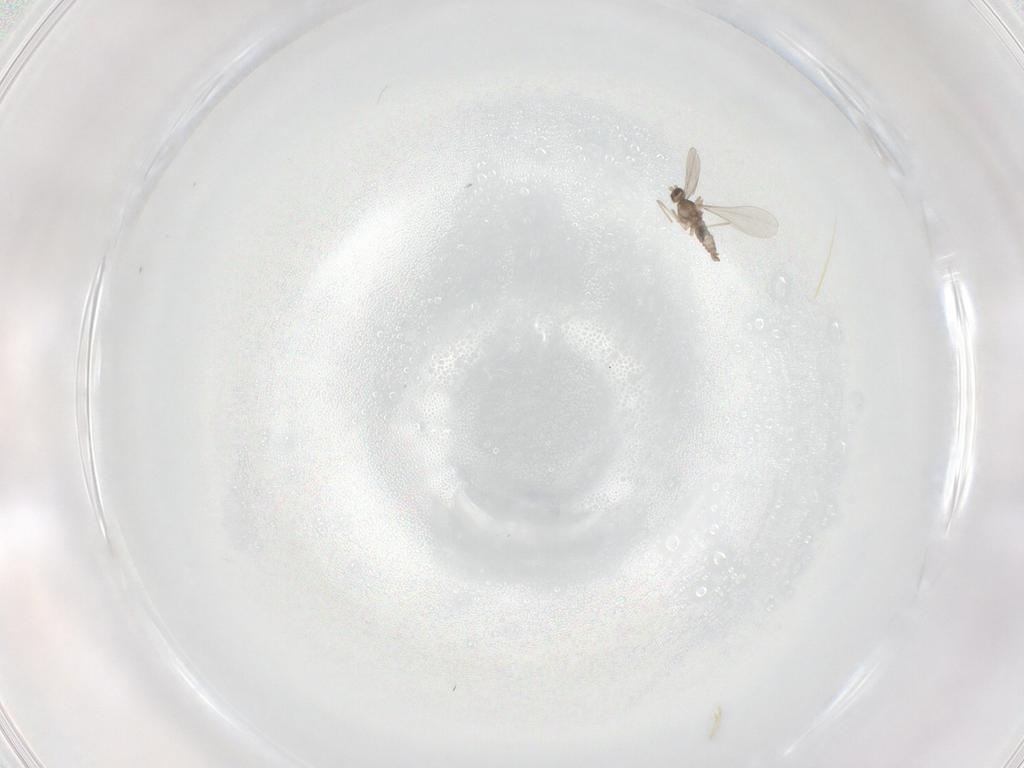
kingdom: Animalia
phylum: Arthropoda
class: Insecta
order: Diptera
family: Cecidomyiidae
